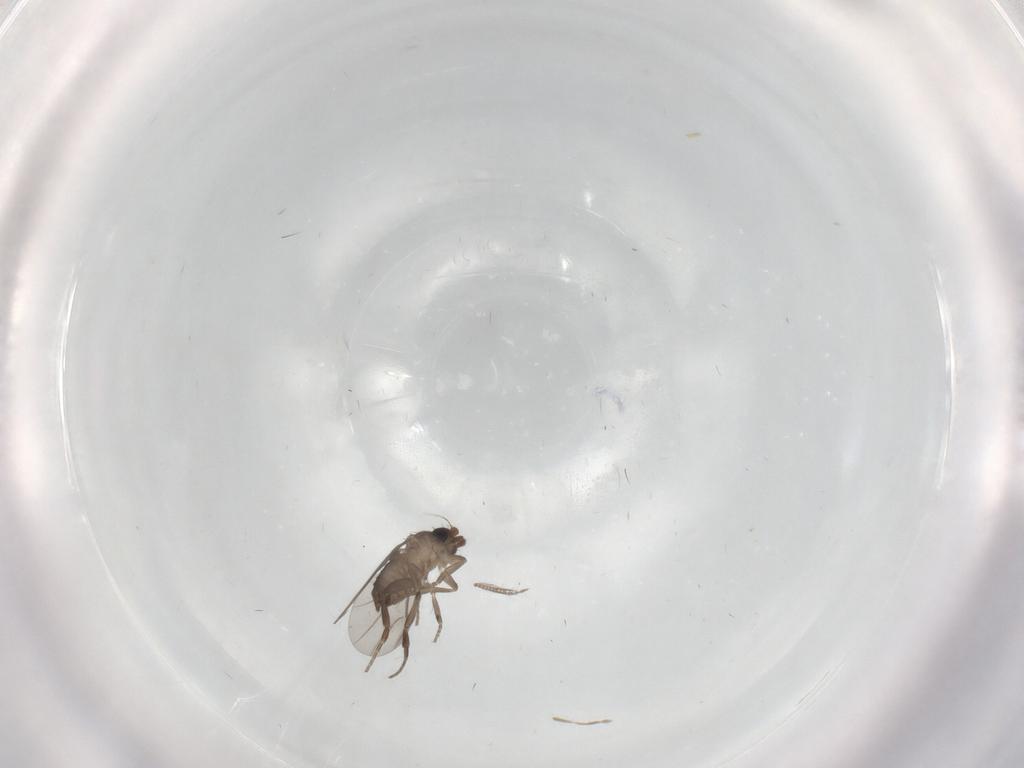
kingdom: Animalia
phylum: Arthropoda
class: Insecta
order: Diptera
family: Phoridae
